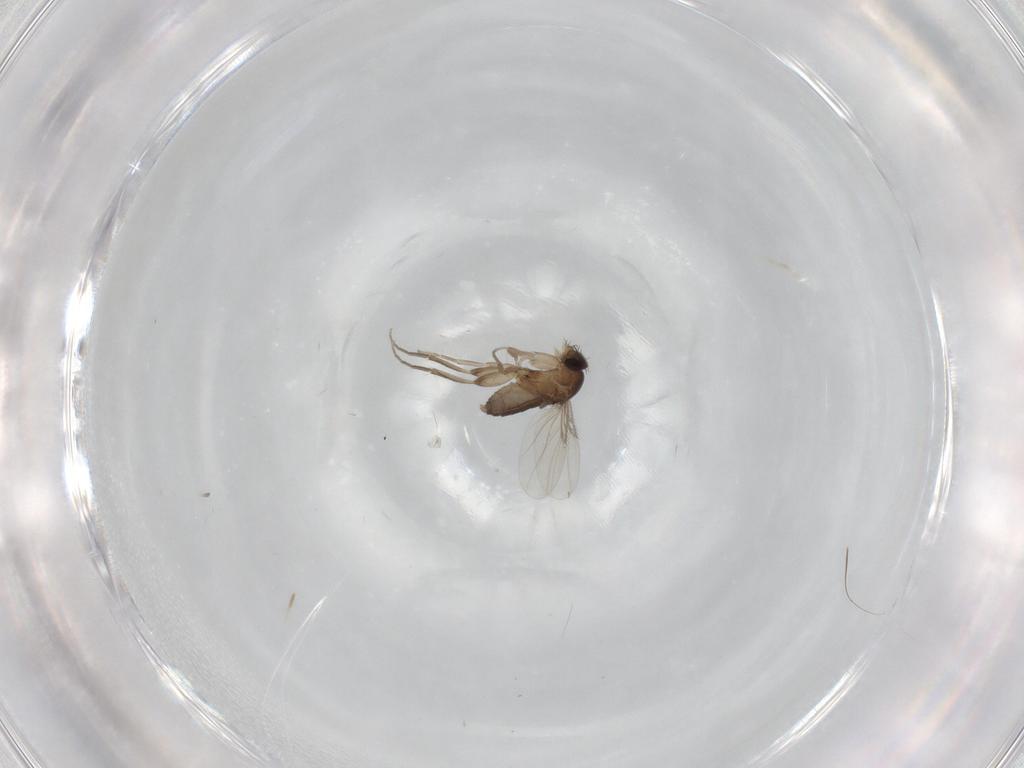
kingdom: Animalia
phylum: Arthropoda
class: Insecta
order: Diptera
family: Phoridae
